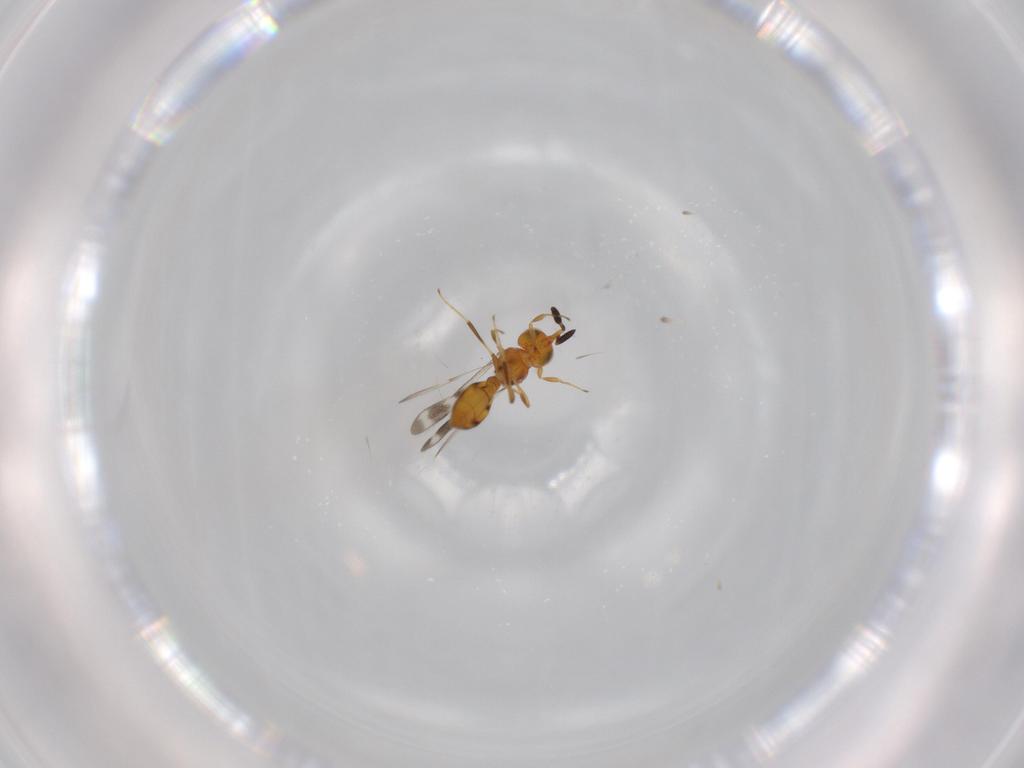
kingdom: Animalia
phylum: Arthropoda
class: Insecta
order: Hymenoptera
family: Scelionidae
